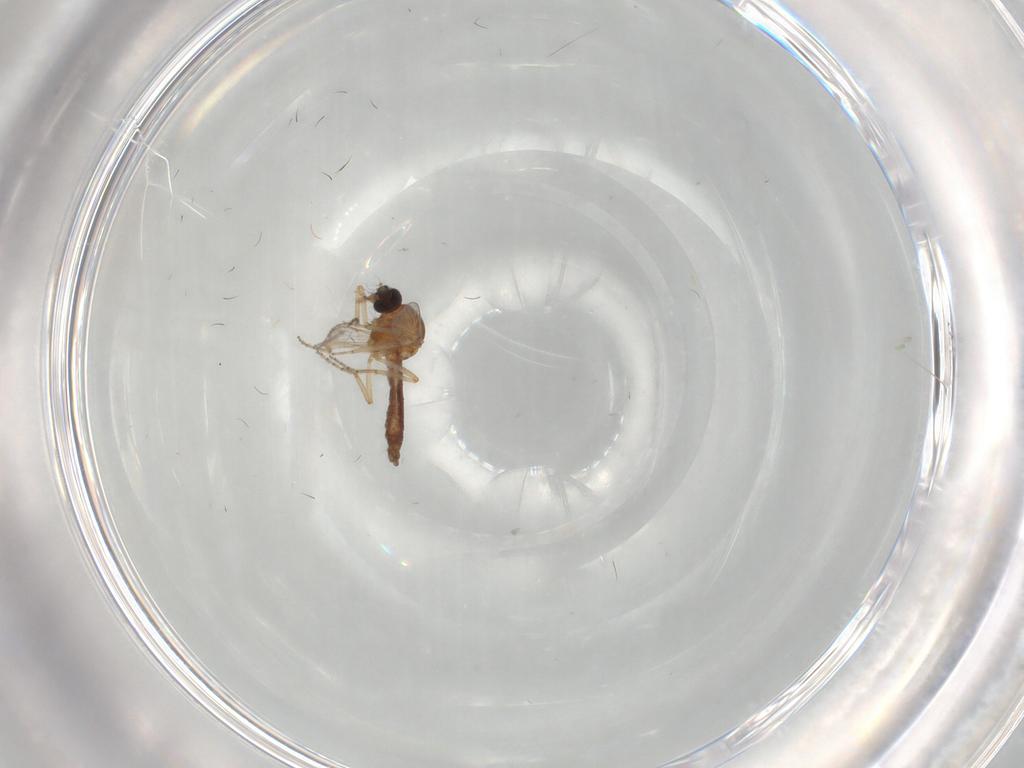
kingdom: Animalia
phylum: Arthropoda
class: Insecta
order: Diptera
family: Ceratopogonidae
